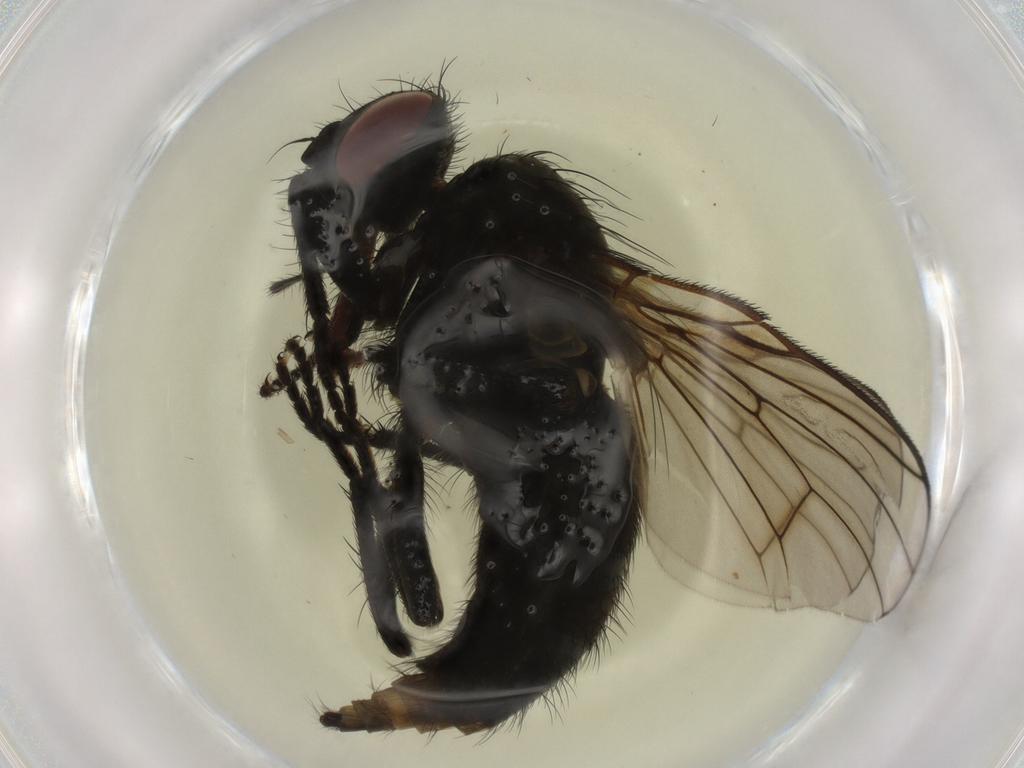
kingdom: Animalia
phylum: Arthropoda
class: Insecta
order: Diptera
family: Muscidae
